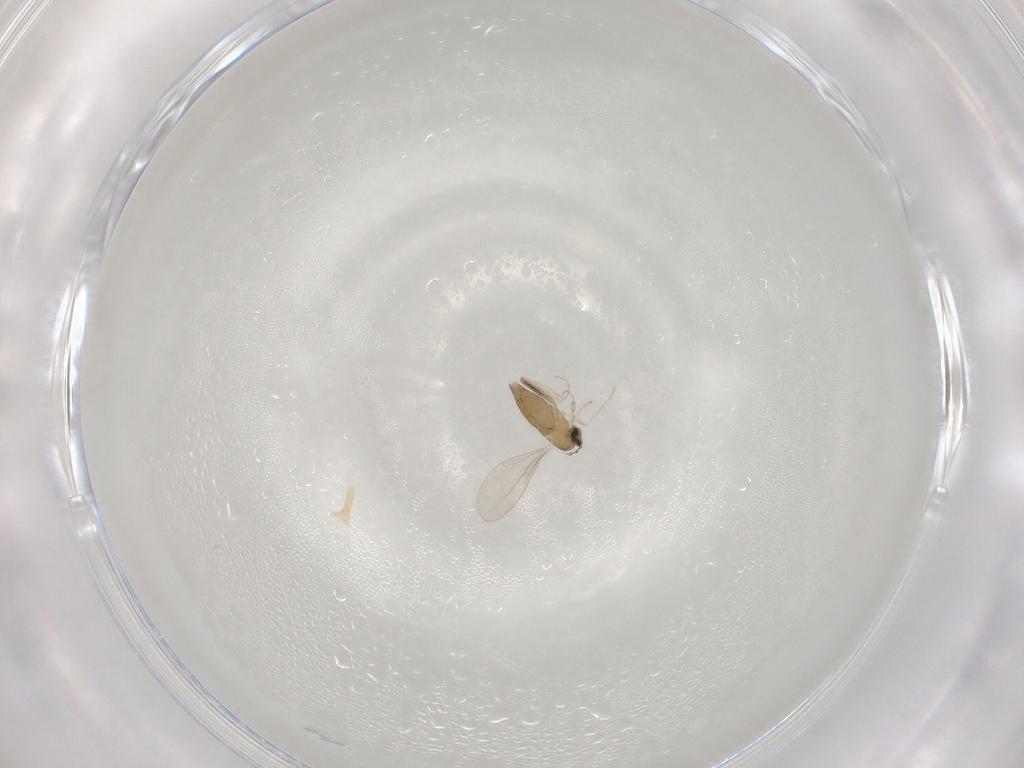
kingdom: Animalia
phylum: Arthropoda
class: Insecta
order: Diptera
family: Cecidomyiidae
